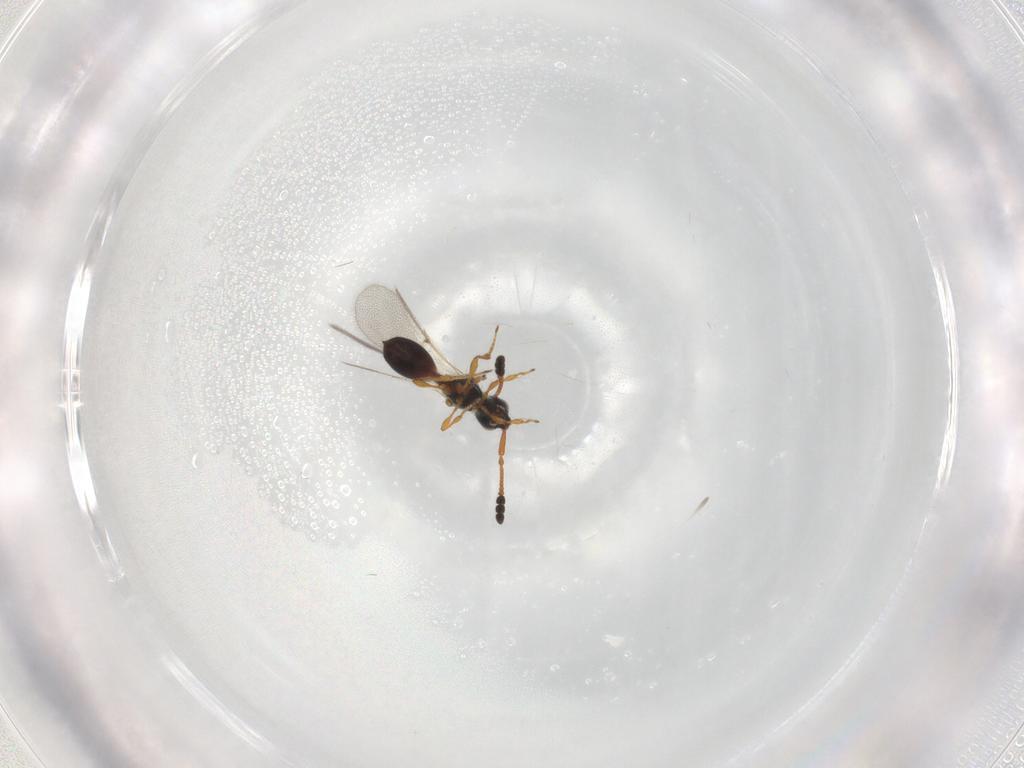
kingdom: Animalia
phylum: Arthropoda
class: Insecta
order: Hymenoptera
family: Diapriidae
